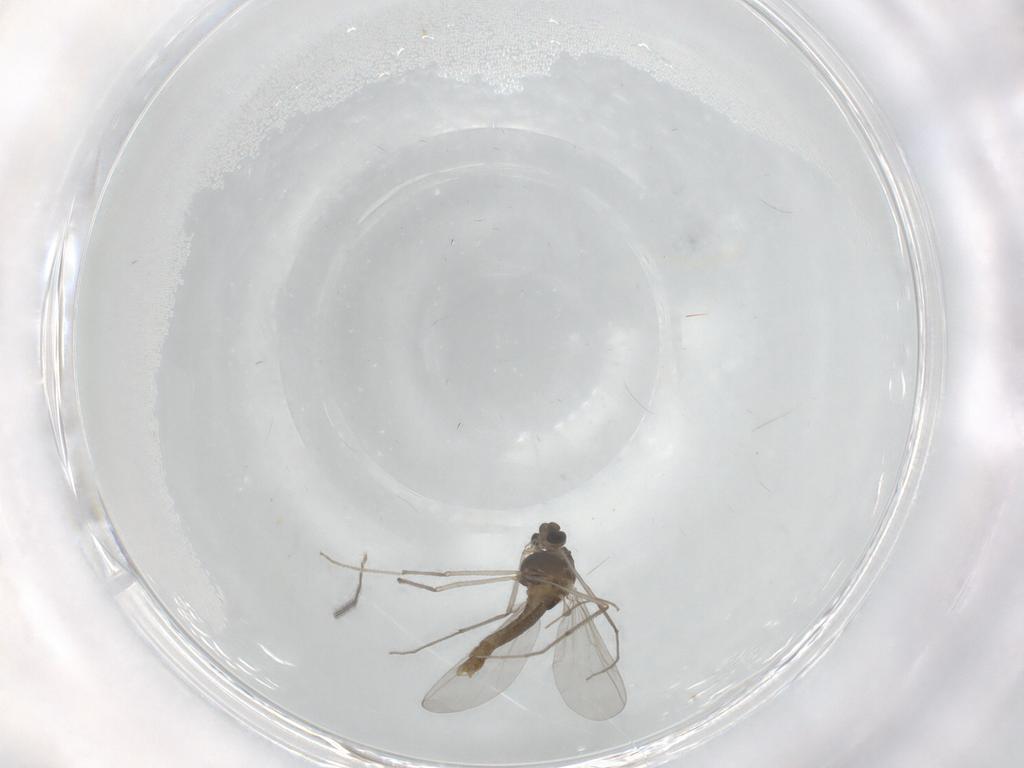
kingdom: Animalia
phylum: Arthropoda
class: Insecta
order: Diptera
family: Chironomidae
